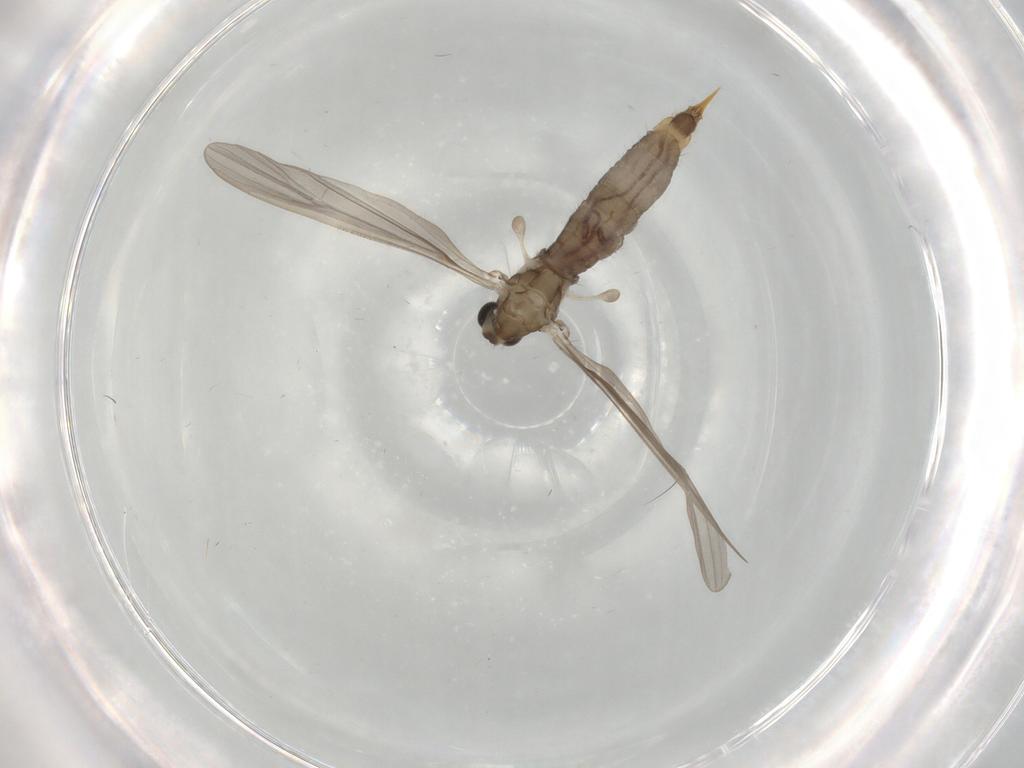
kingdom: Animalia
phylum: Arthropoda
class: Insecta
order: Diptera
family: Limoniidae
